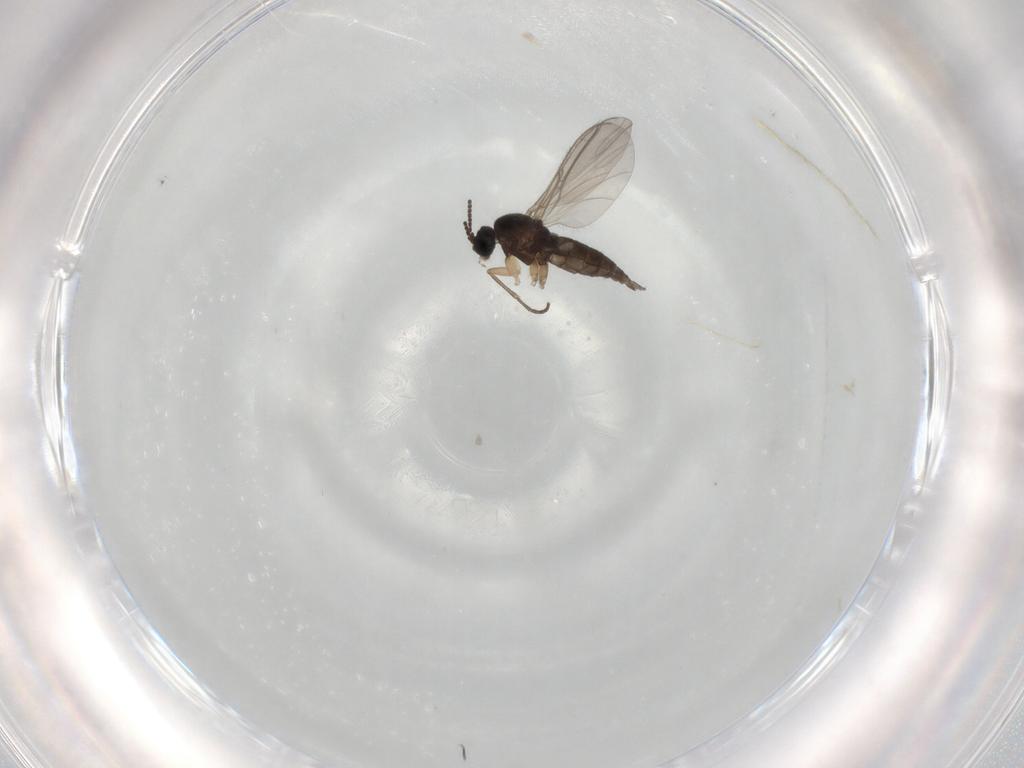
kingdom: Animalia
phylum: Arthropoda
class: Insecta
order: Diptera
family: Sciaridae
